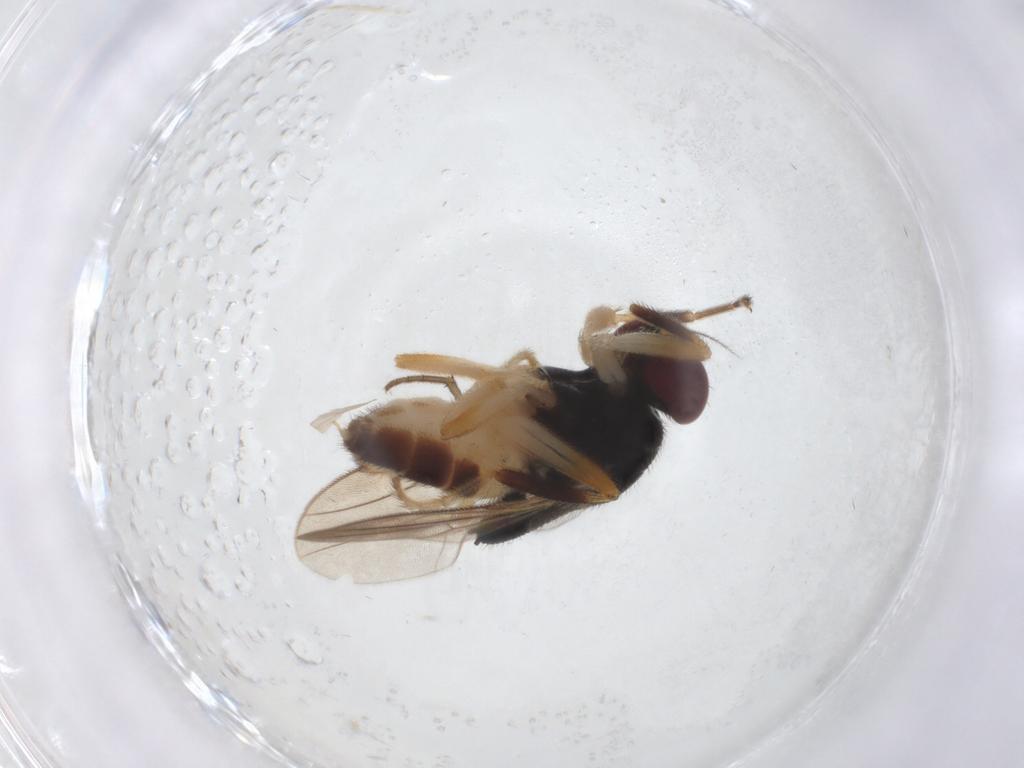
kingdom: Animalia
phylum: Arthropoda
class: Insecta
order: Diptera
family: Chloropidae
